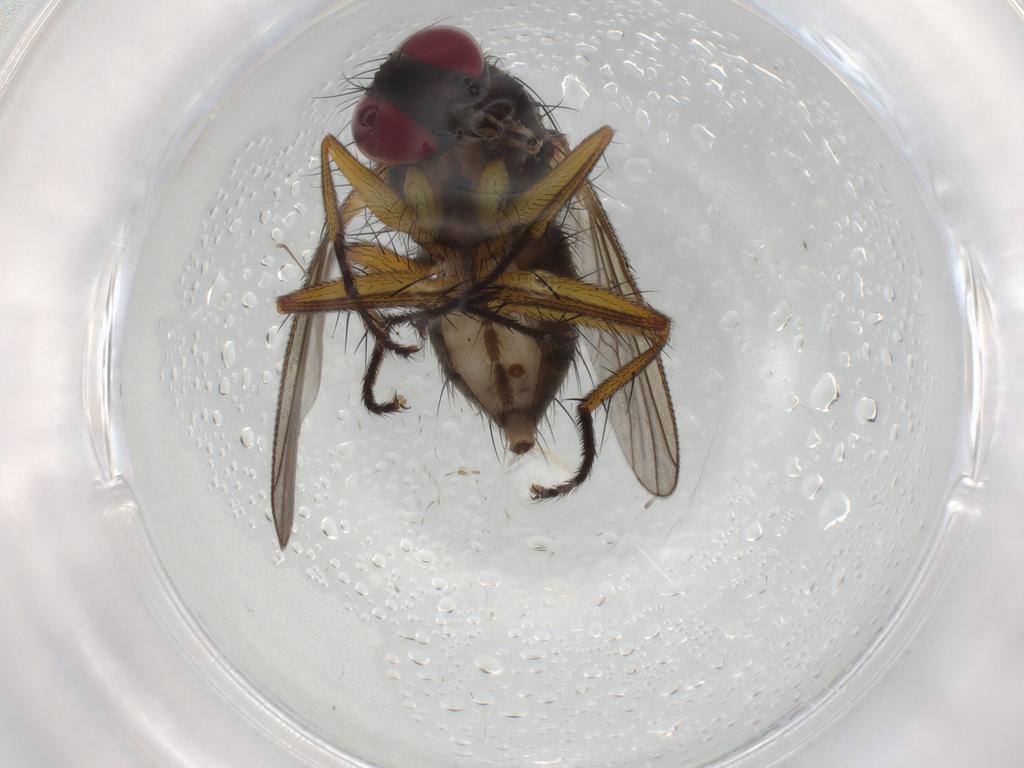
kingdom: Animalia
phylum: Arthropoda
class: Insecta
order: Diptera
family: Muscidae
